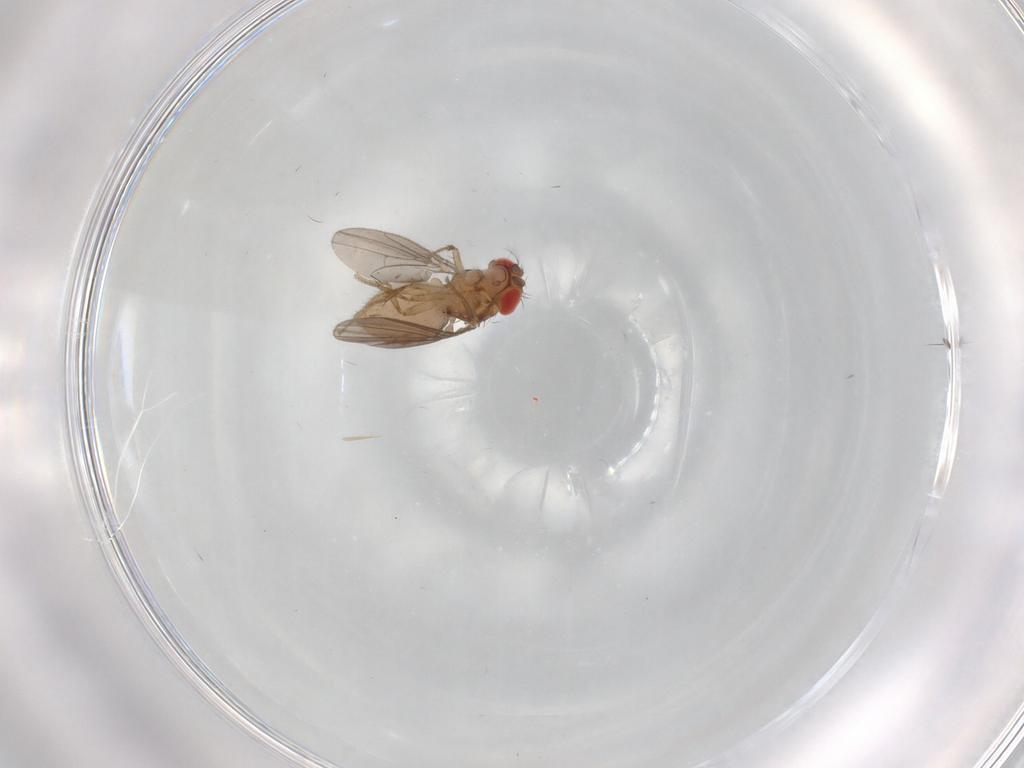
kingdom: Animalia
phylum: Arthropoda
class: Insecta
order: Diptera
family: Drosophilidae
